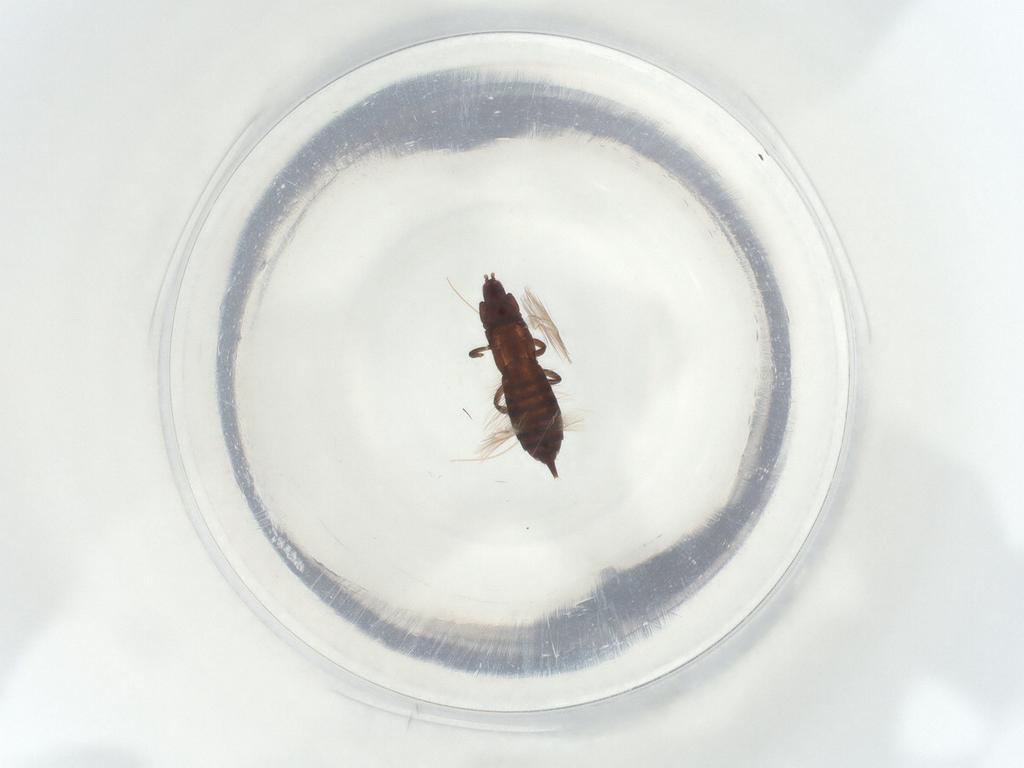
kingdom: Animalia
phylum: Arthropoda
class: Insecta
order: Thysanoptera
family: Phlaeothripidae
